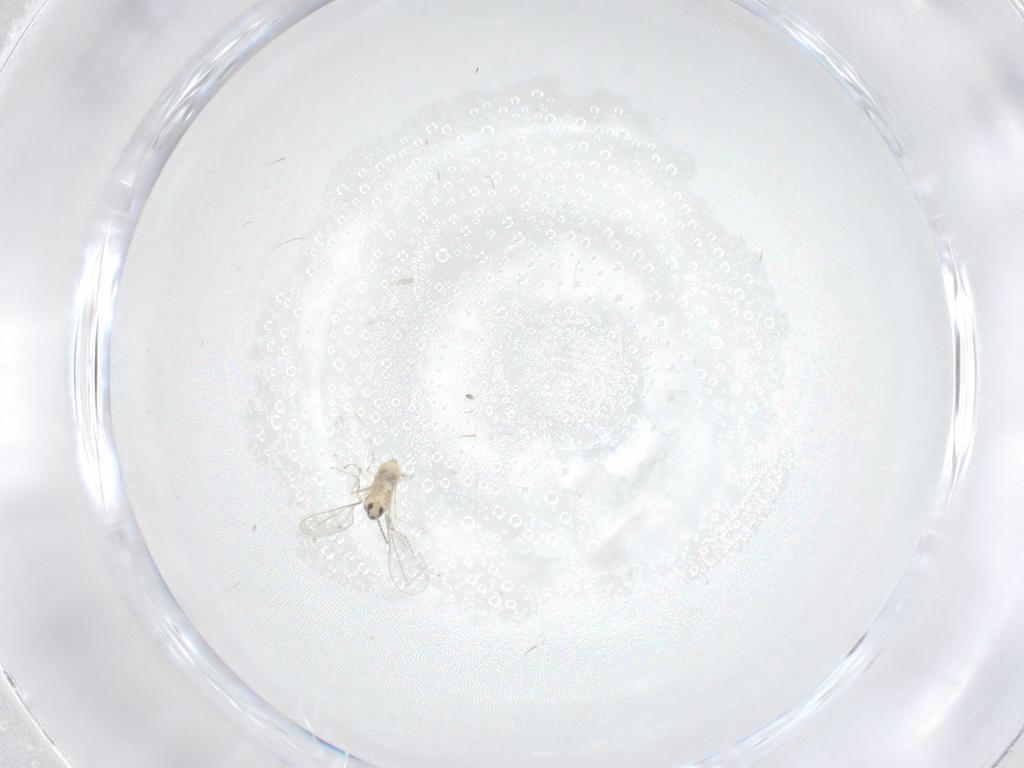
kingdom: Animalia
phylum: Arthropoda
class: Insecta
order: Diptera
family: Cecidomyiidae
